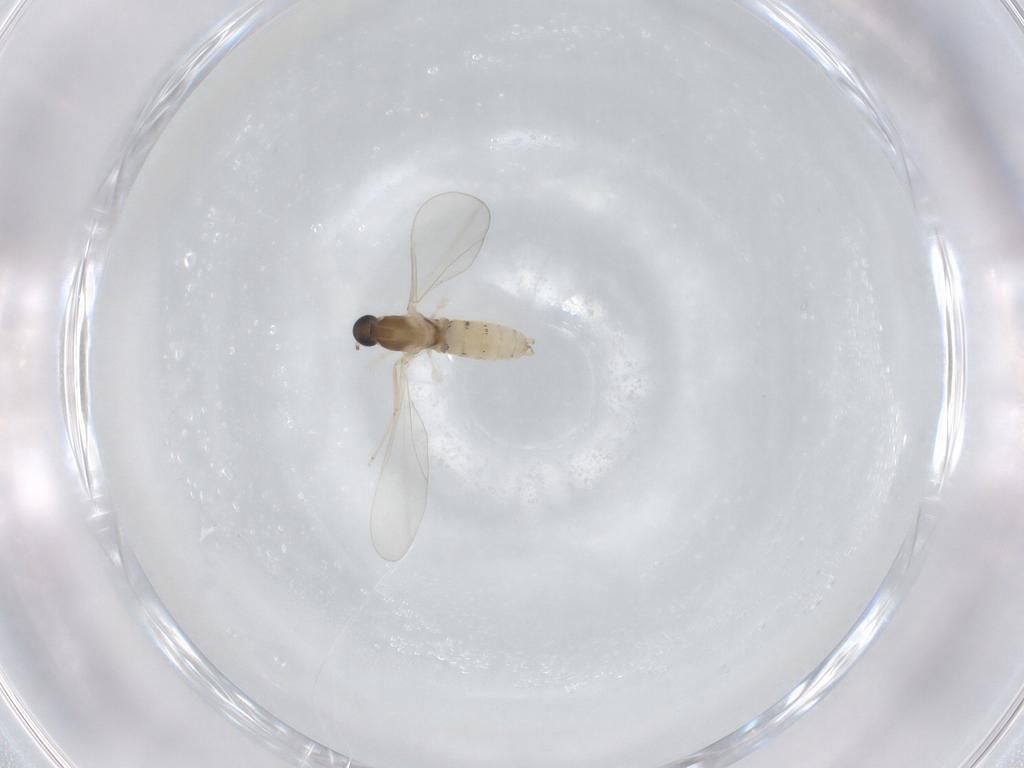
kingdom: Animalia
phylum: Arthropoda
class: Insecta
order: Diptera
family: Cecidomyiidae
